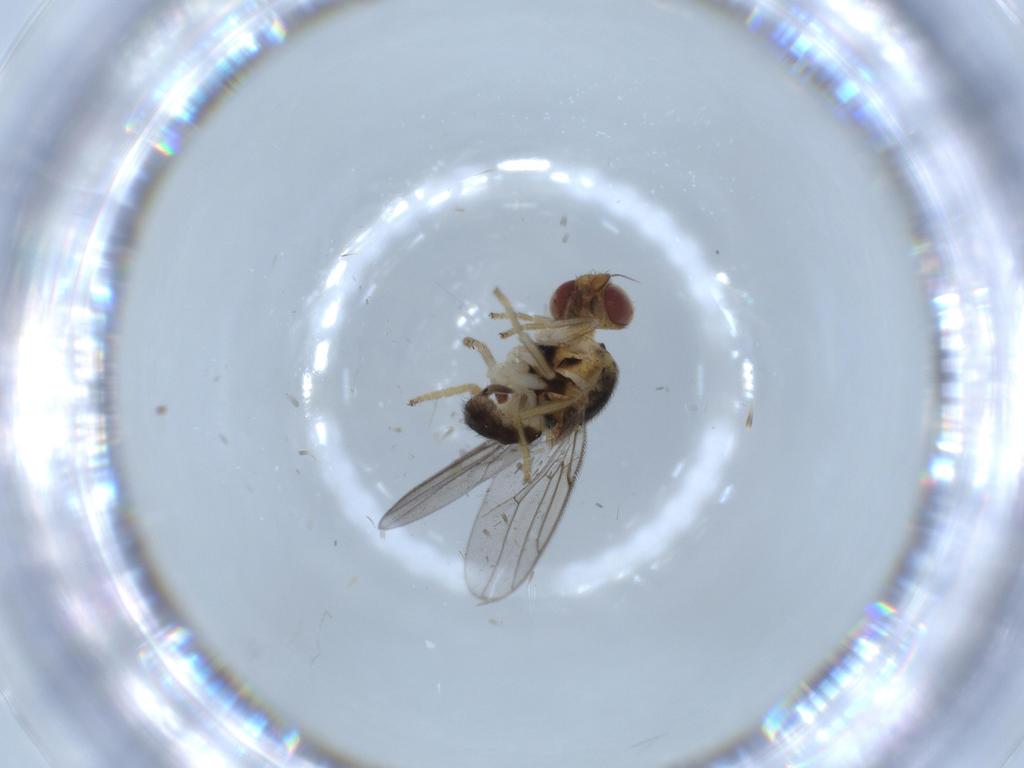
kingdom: Animalia
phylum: Arthropoda
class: Insecta
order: Diptera
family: Chloropidae
